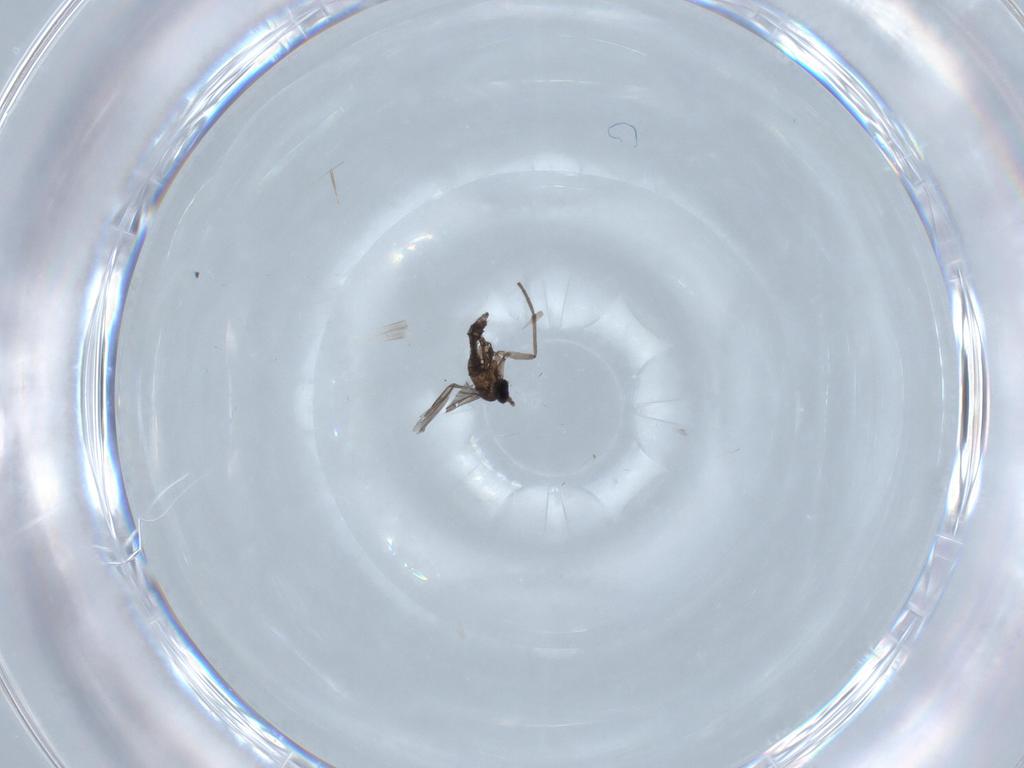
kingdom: Animalia
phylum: Arthropoda
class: Insecta
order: Diptera
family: Sciaridae
